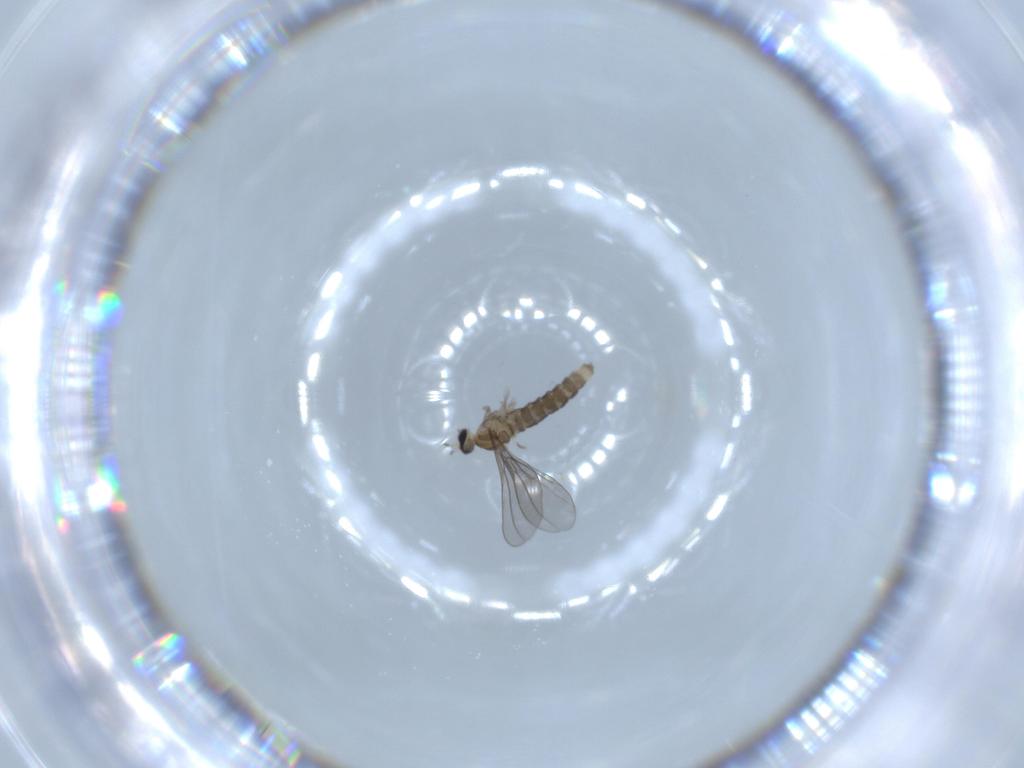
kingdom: Animalia
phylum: Arthropoda
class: Insecta
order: Diptera
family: Cecidomyiidae
